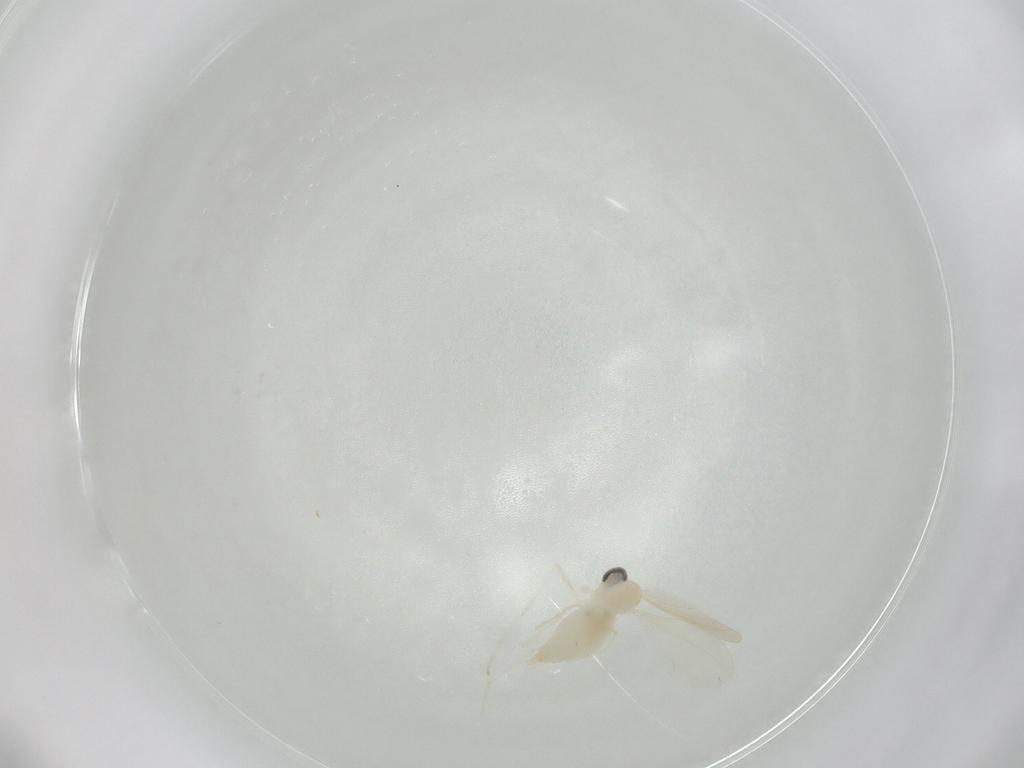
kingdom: Animalia
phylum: Arthropoda
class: Insecta
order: Diptera
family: Cecidomyiidae
